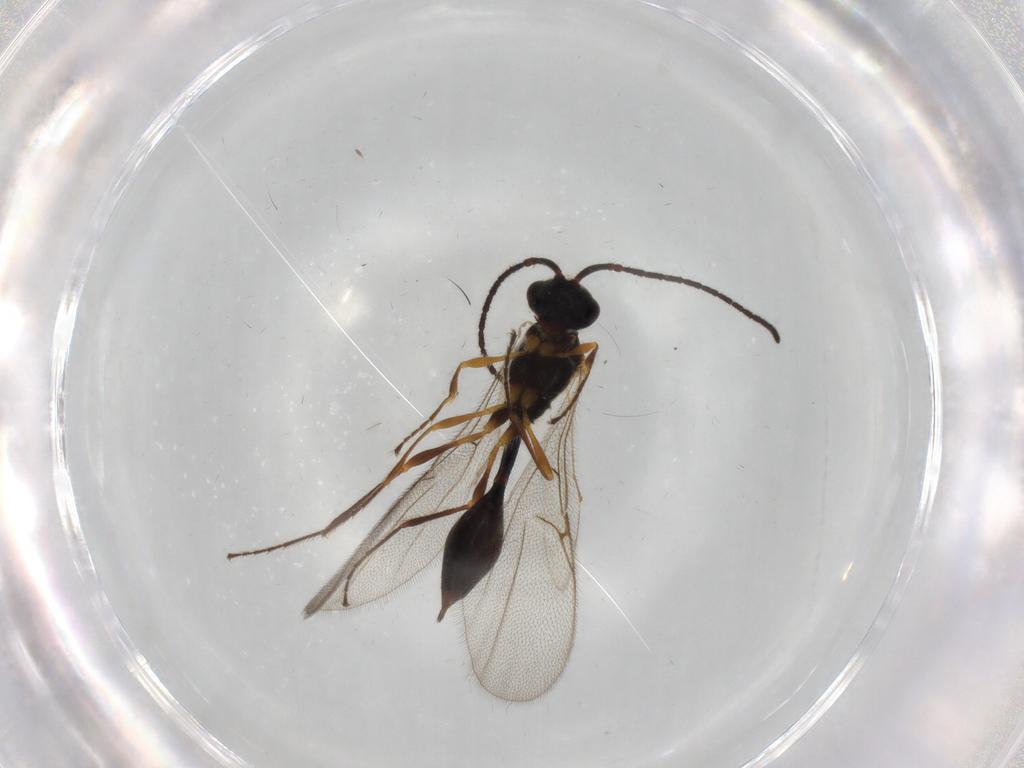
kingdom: Animalia
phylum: Arthropoda
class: Insecta
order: Hymenoptera
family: Diapriidae
